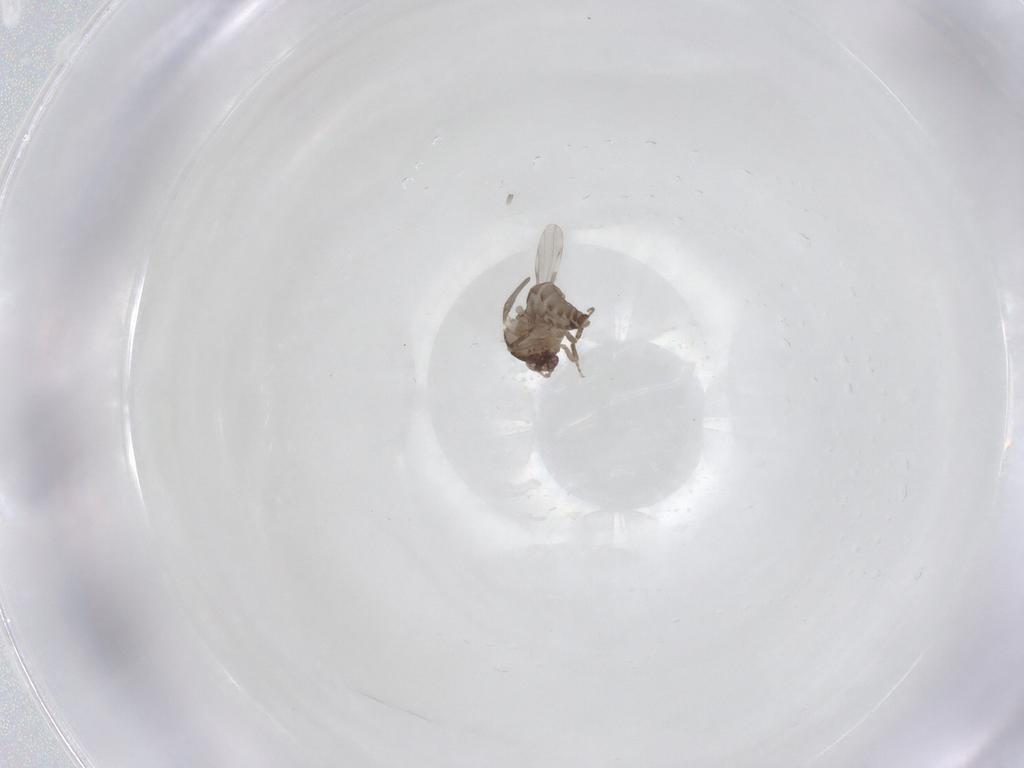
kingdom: Animalia
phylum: Arthropoda
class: Insecta
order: Diptera
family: Ceratopogonidae
